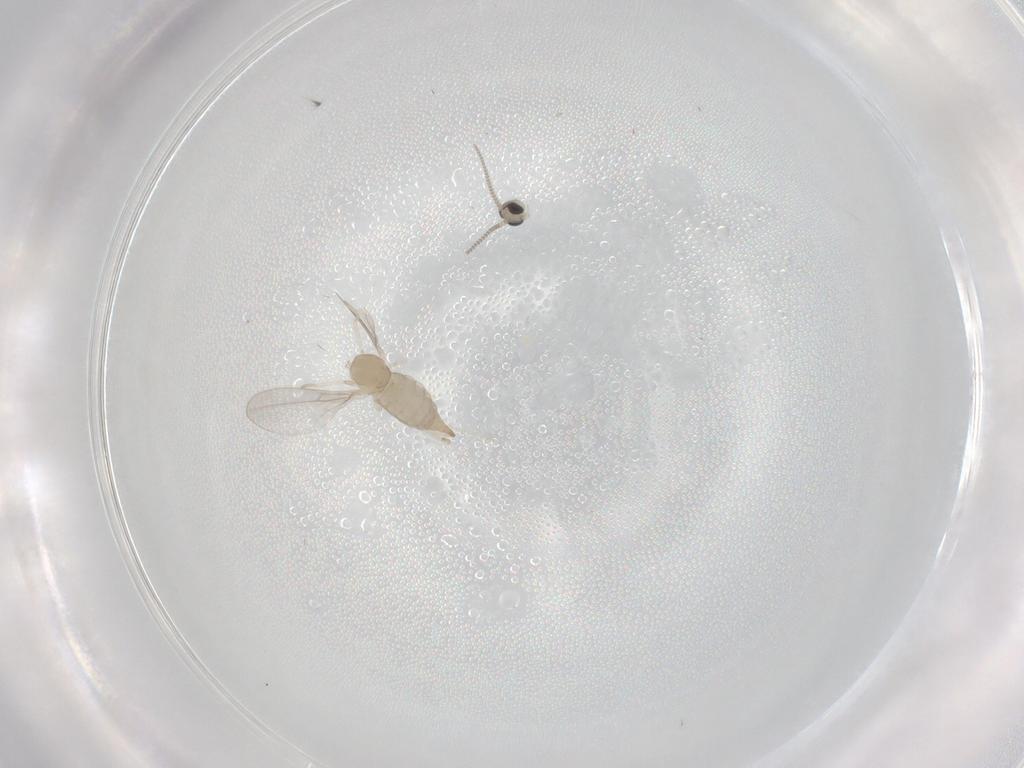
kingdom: Animalia
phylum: Arthropoda
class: Insecta
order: Diptera
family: Cecidomyiidae
